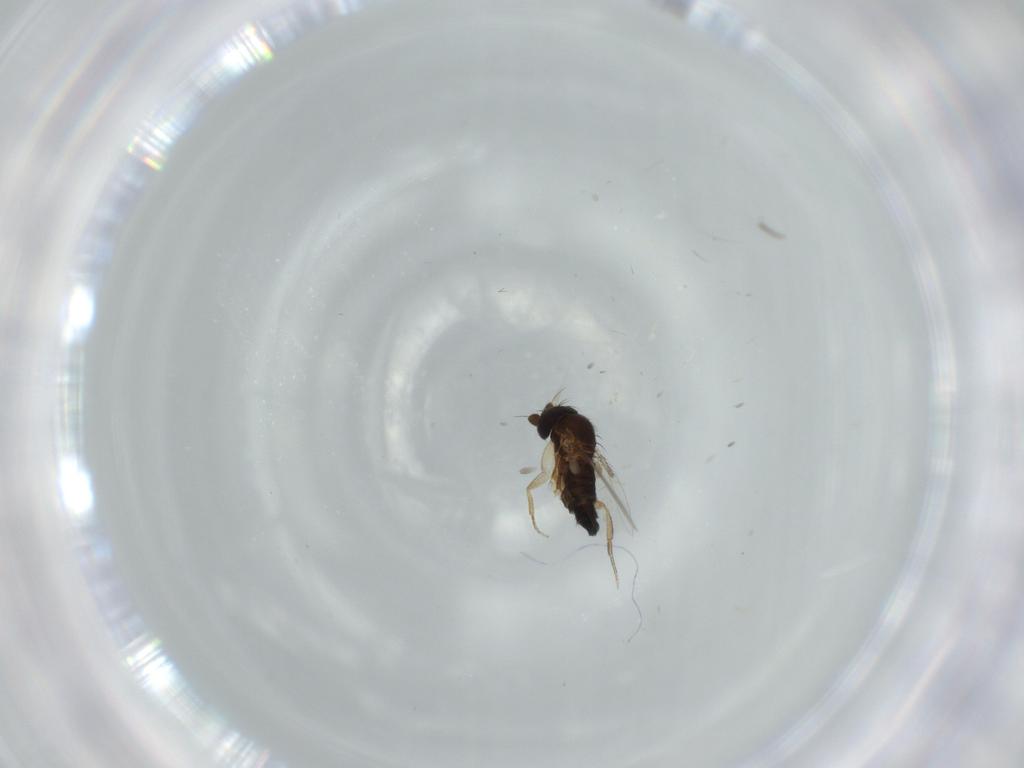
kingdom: Animalia
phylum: Arthropoda
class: Insecta
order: Diptera
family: Phoridae
